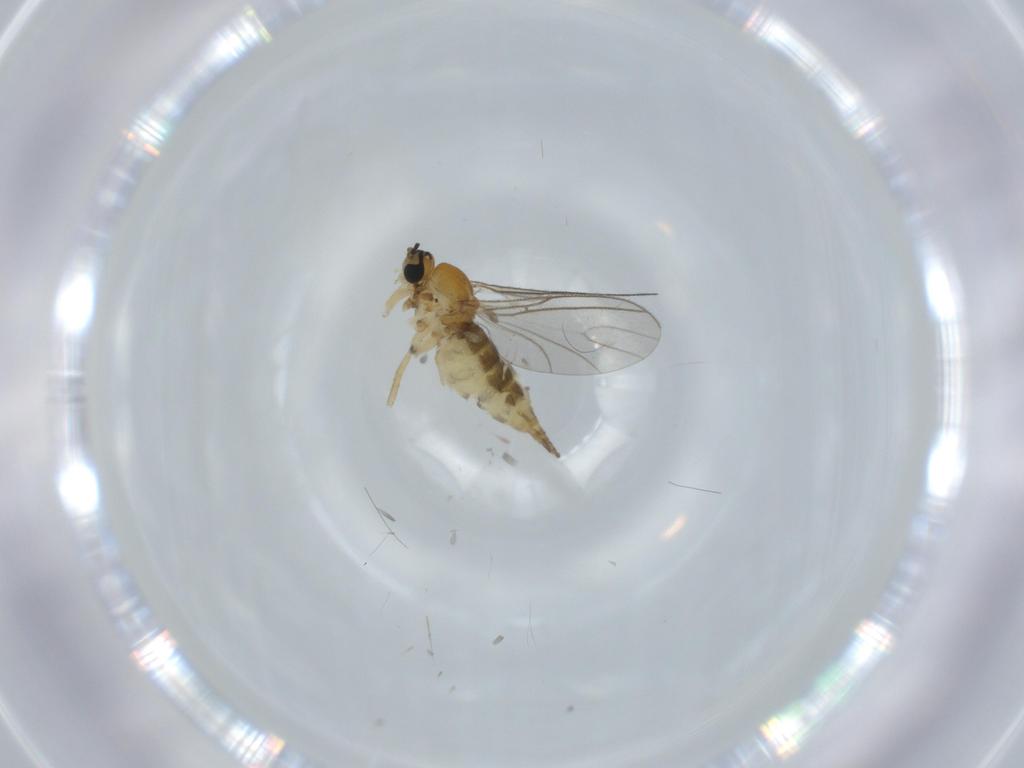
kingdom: Animalia
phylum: Arthropoda
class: Insecta
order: Diptera
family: Sciaridae
